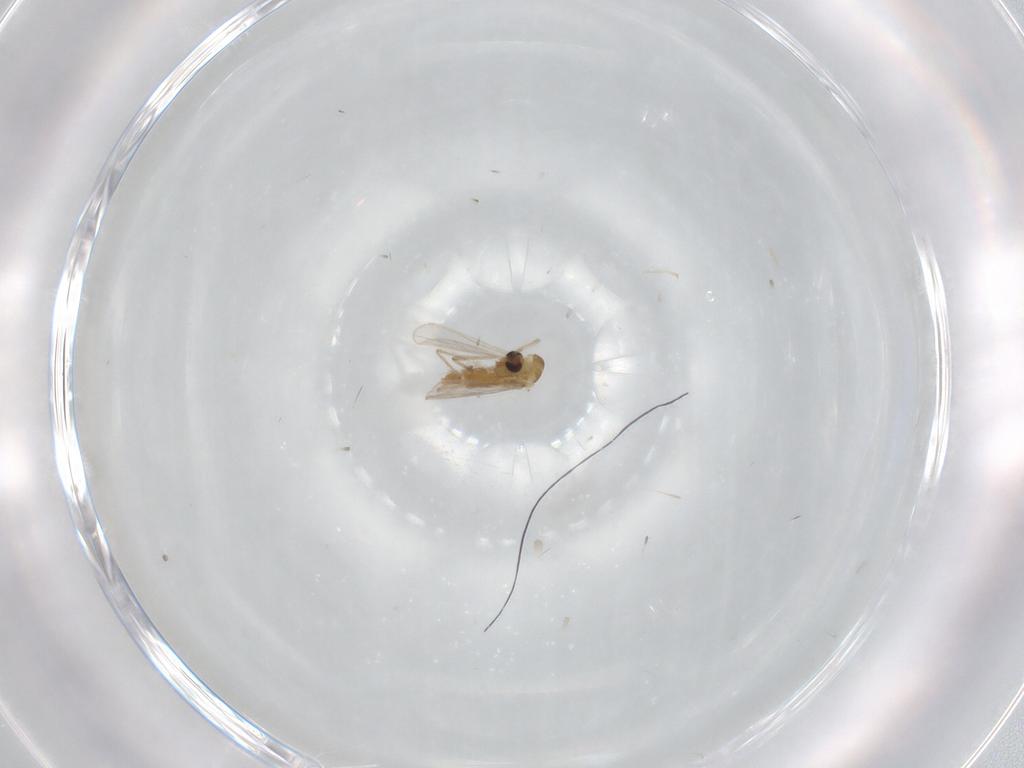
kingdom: Animalia
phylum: Arthropoda
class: Insecta
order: Diptera
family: Chironomidae
